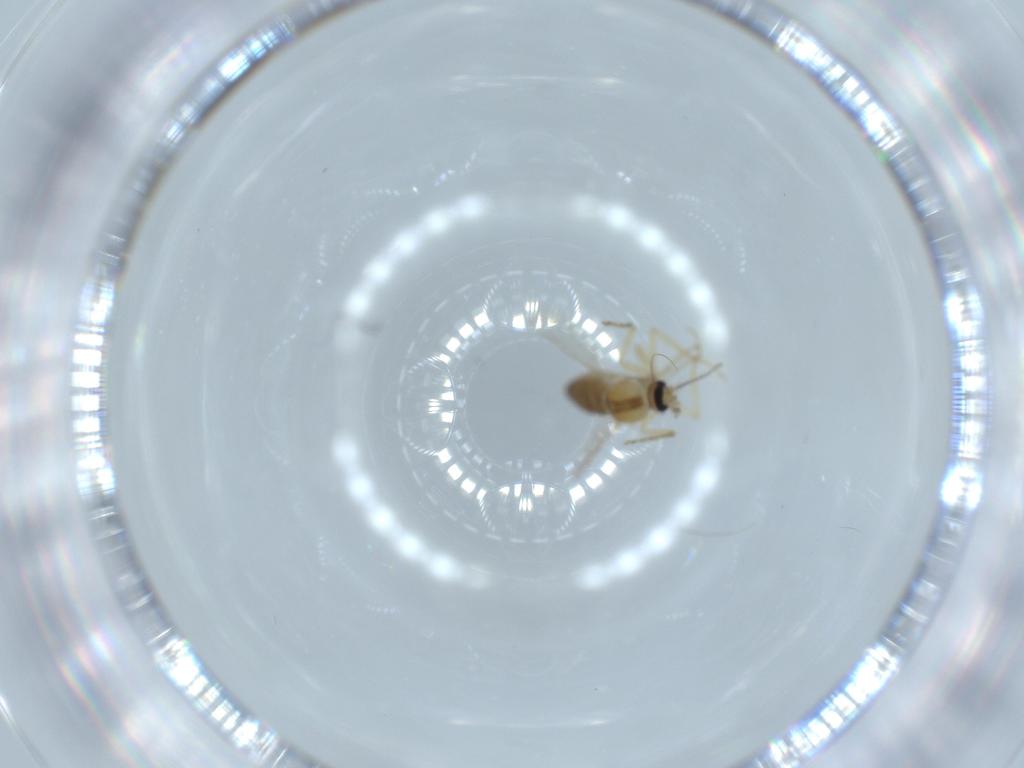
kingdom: Animalia
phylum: Arthropoda
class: Insecta
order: Diptera
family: Ceratopogonidae
